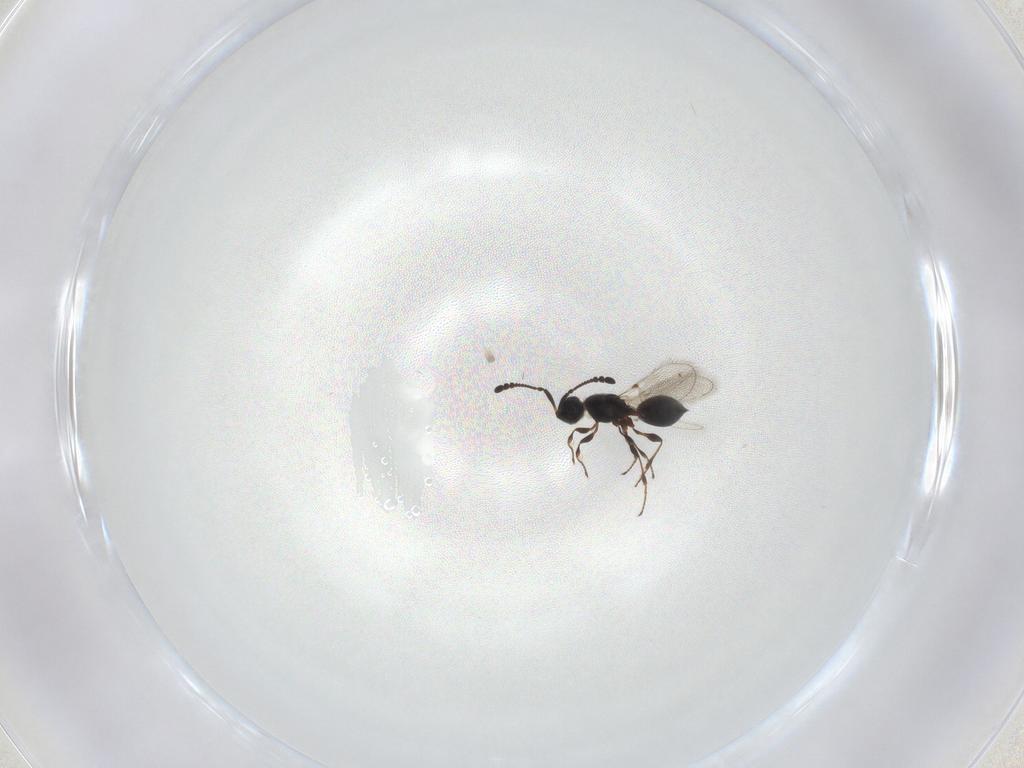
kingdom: Animalia
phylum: Arthropoda
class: Insecta
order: Hymenoptera
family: Diapriidae
